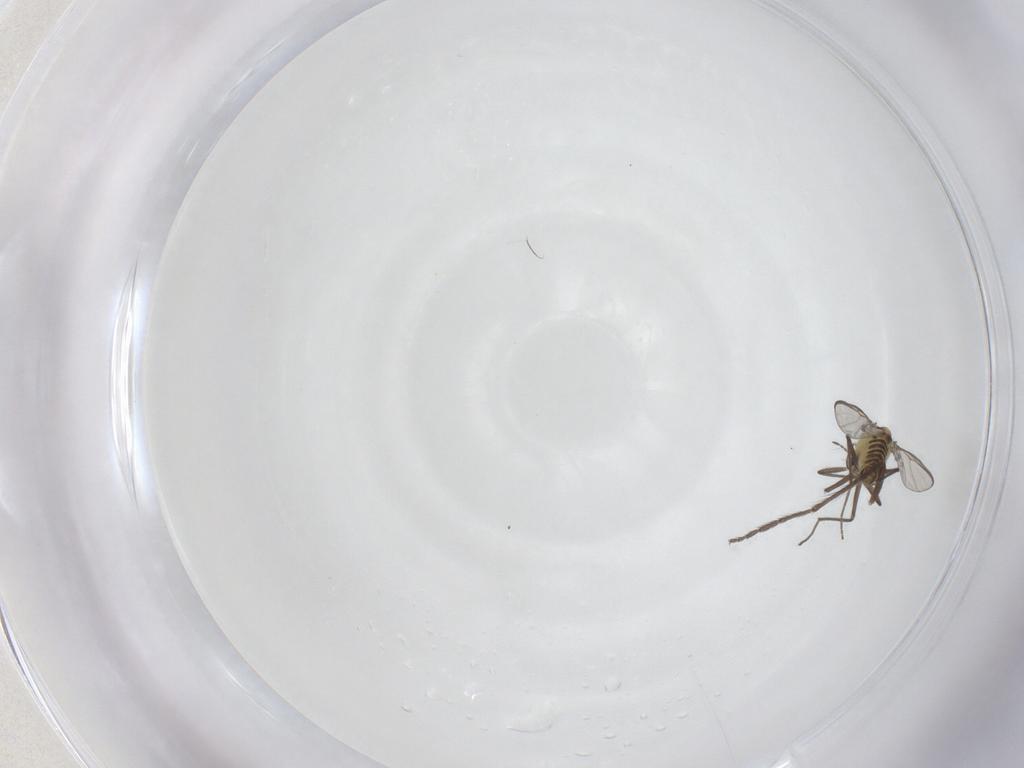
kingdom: Animalia
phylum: Arthropoda
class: Insecta
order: Diptera
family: Chironomidae
